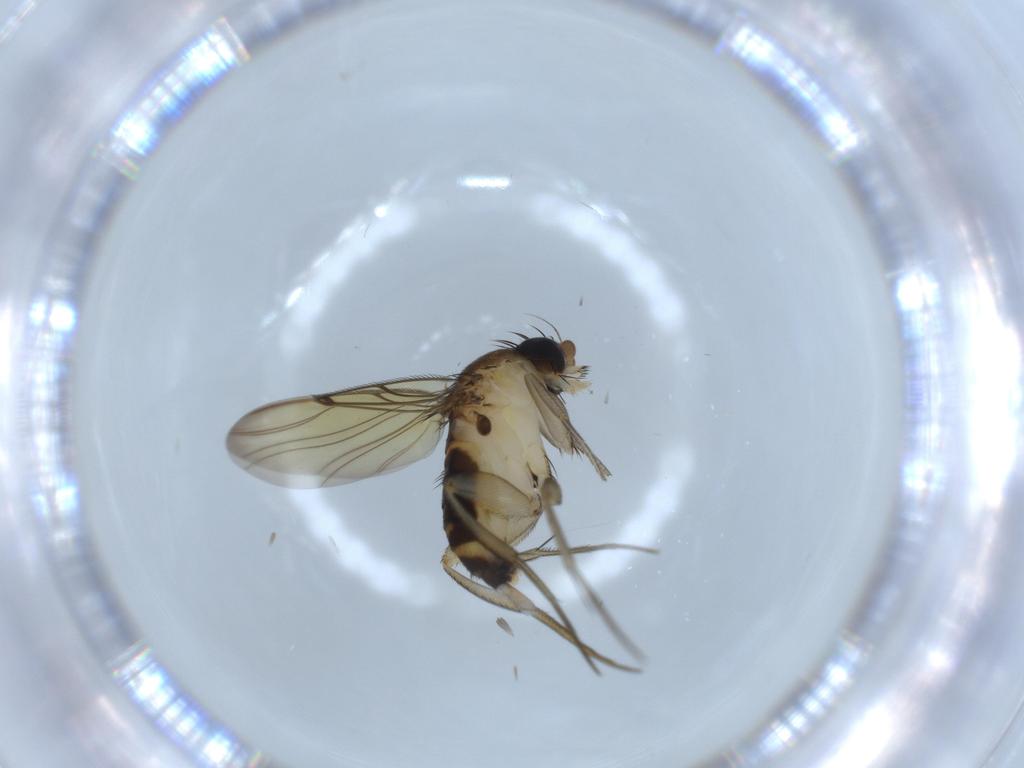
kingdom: Animalia
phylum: Arthropoda
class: Insecta
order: Diptera
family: Phoridae
